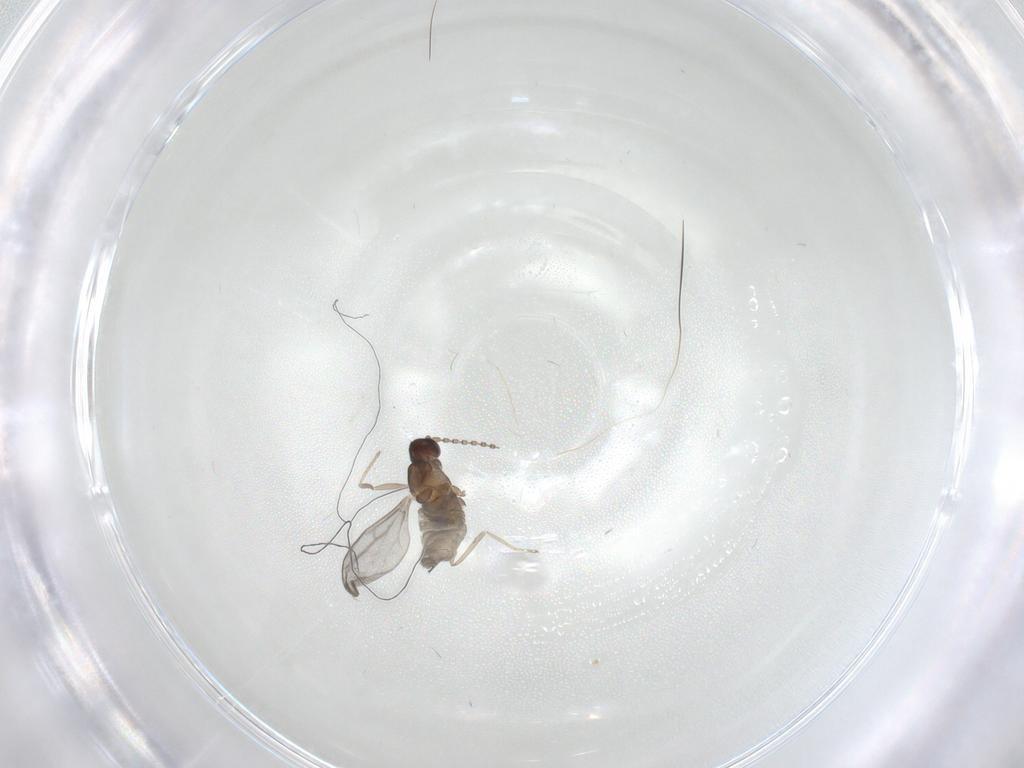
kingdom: Animalia
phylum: Arthropoda
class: Insecta
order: Diptera
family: Cecidomyiidae
